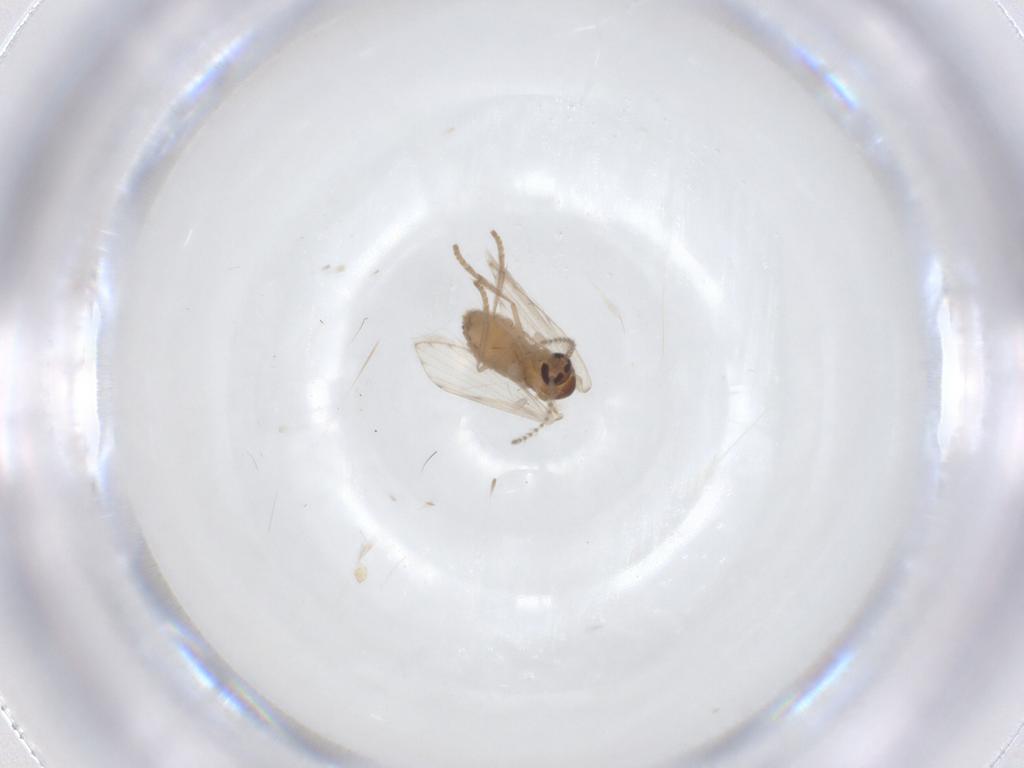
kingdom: Animalia
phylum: Arthropoda
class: Insecta
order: Diptera
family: Psychodidae
